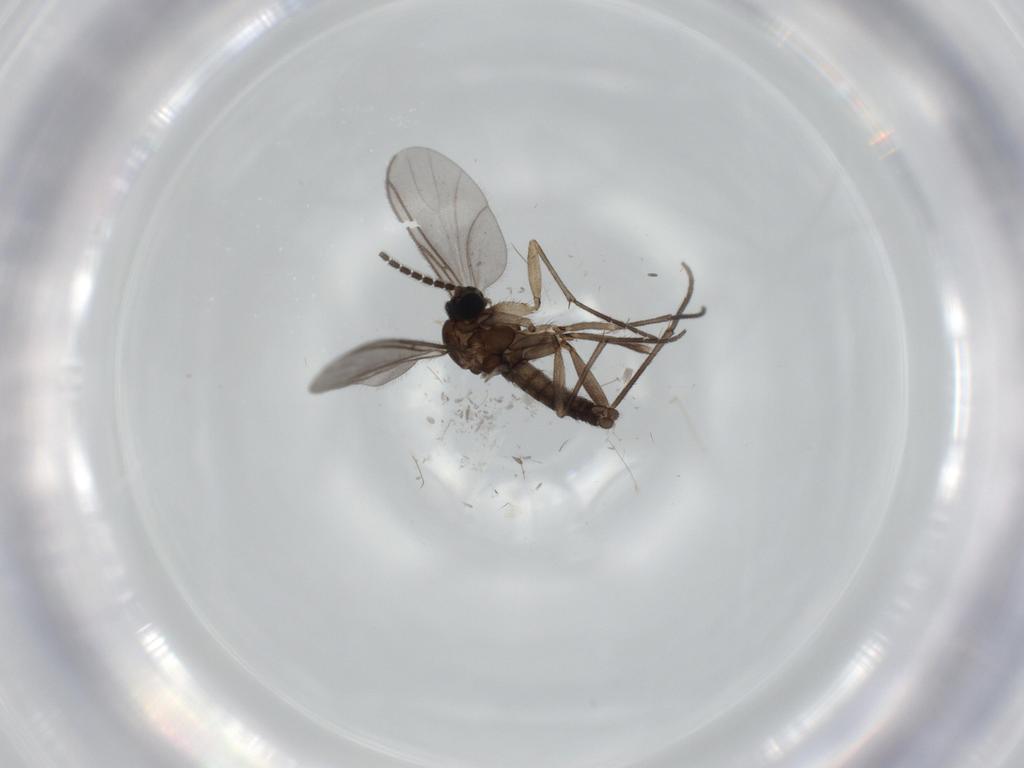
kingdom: Animalia
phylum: Arthropoda
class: Insecta
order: Diptera
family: Sciaridae
